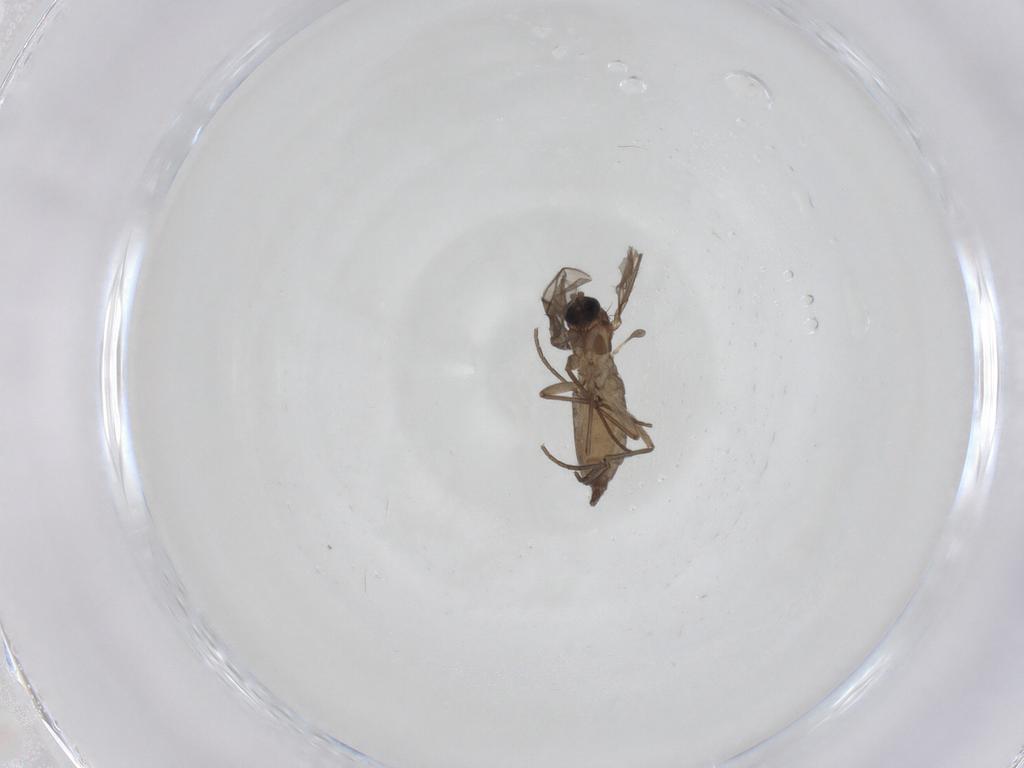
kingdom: Animalia
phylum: Arthropoda
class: Insecta
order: Diptera
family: Sciaridae
